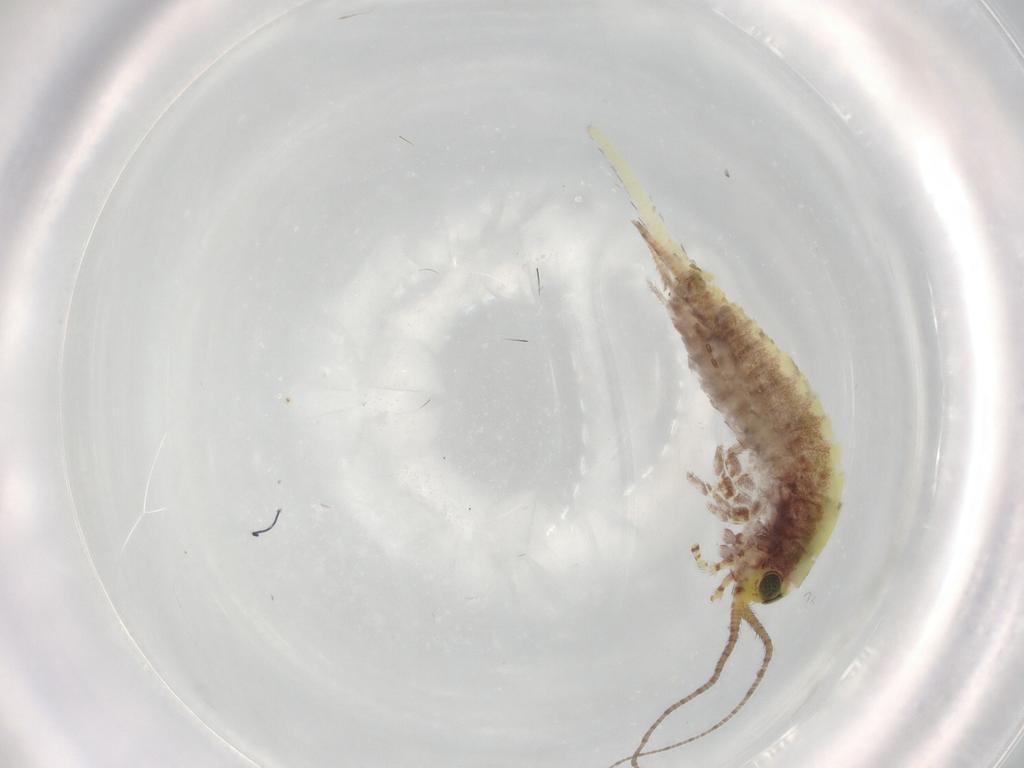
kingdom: Animalia
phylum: Arthropoda
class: Insecta
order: Archaeognatha
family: Machilidae
